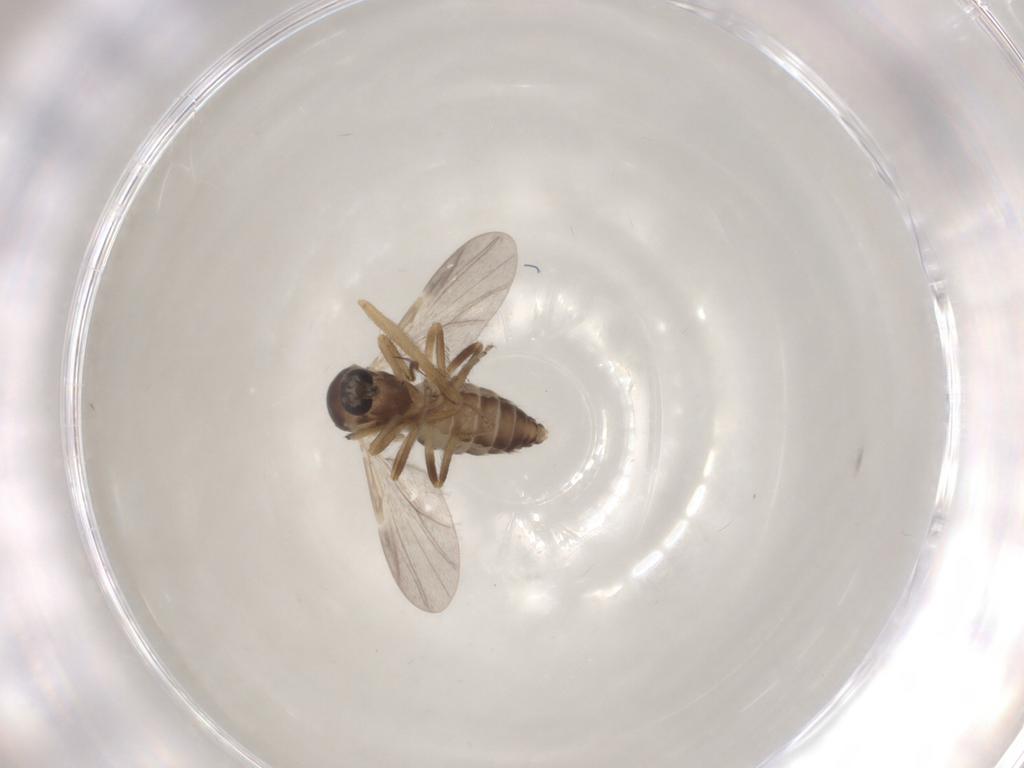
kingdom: Animalia
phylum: Arthropoda
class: Insecta
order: Diptera
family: Ceratopogonidae
